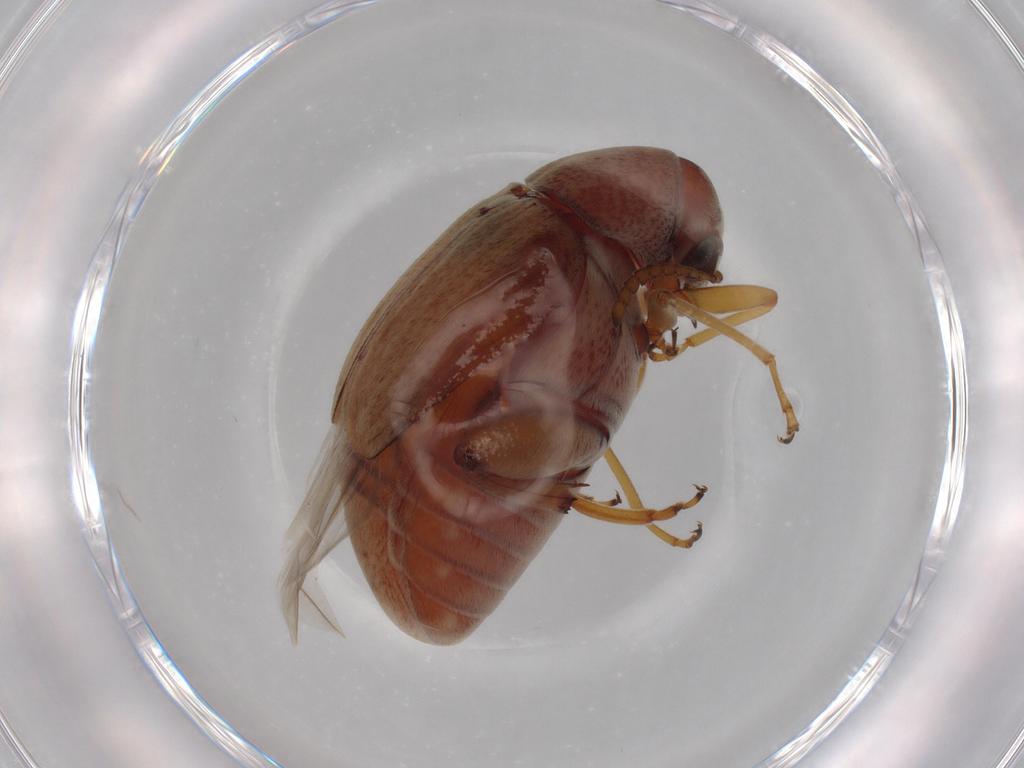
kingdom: Animalia
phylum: Arthropoda
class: Insecta
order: Coleoptera
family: Chrysomelidae
